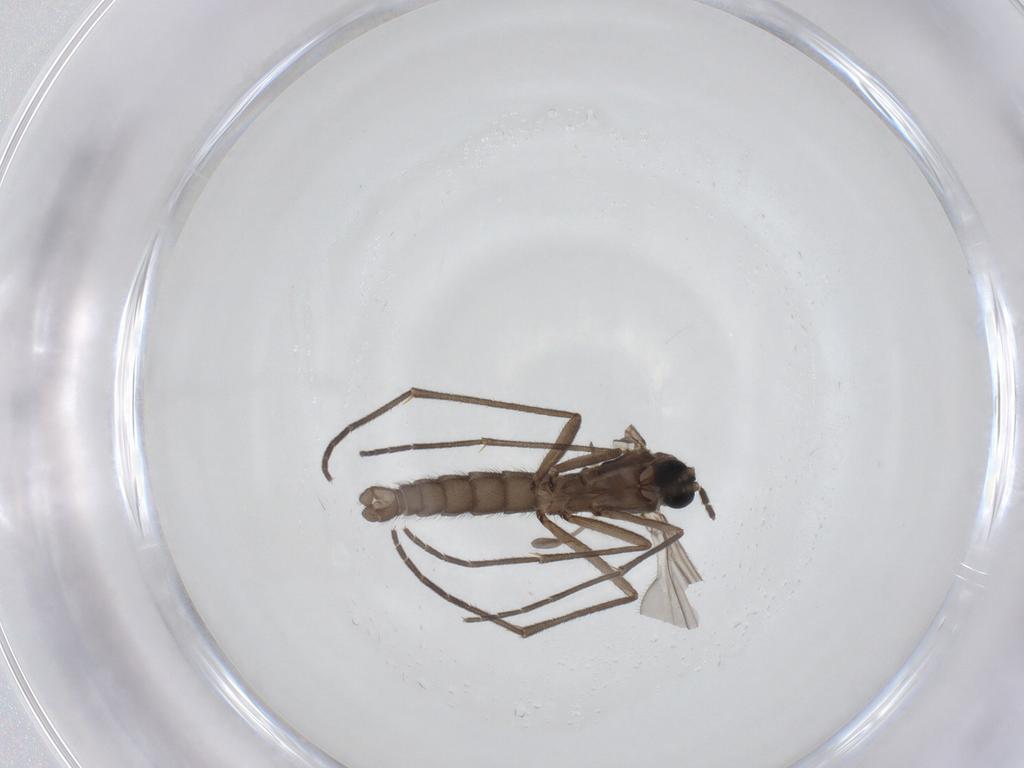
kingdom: Animalia
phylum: Arthropoda
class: Insecta
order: Diptera
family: Sciaridae
